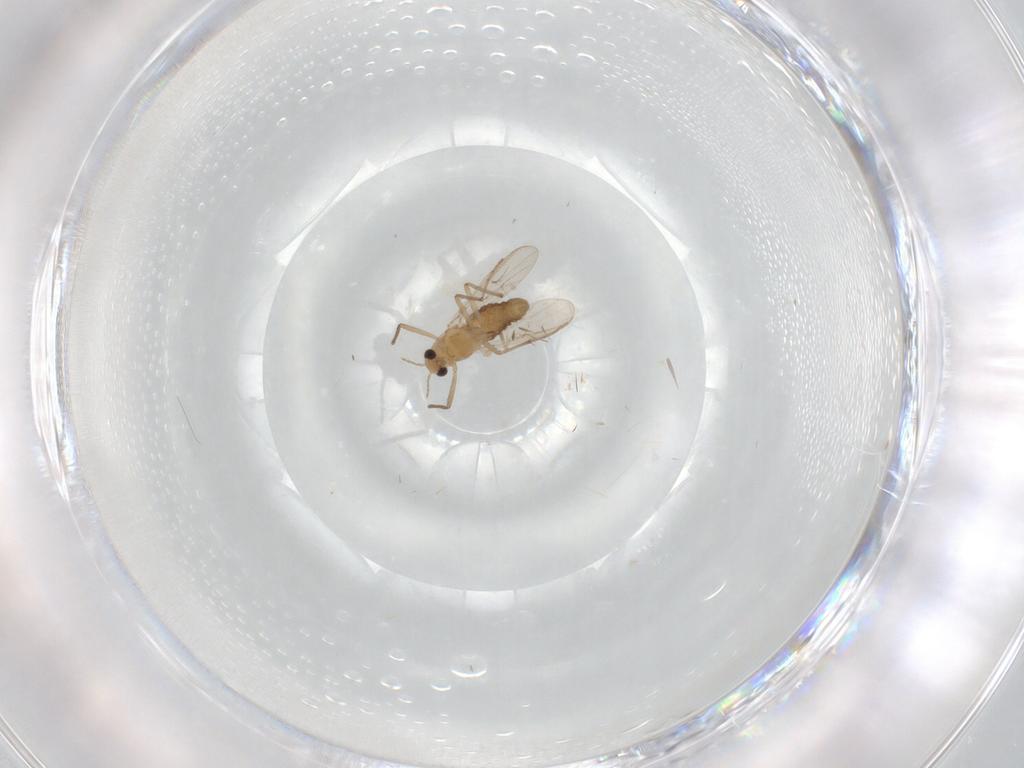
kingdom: Animalia
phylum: Arthropoda
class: Insecta
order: Diptera
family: Chironomidae
